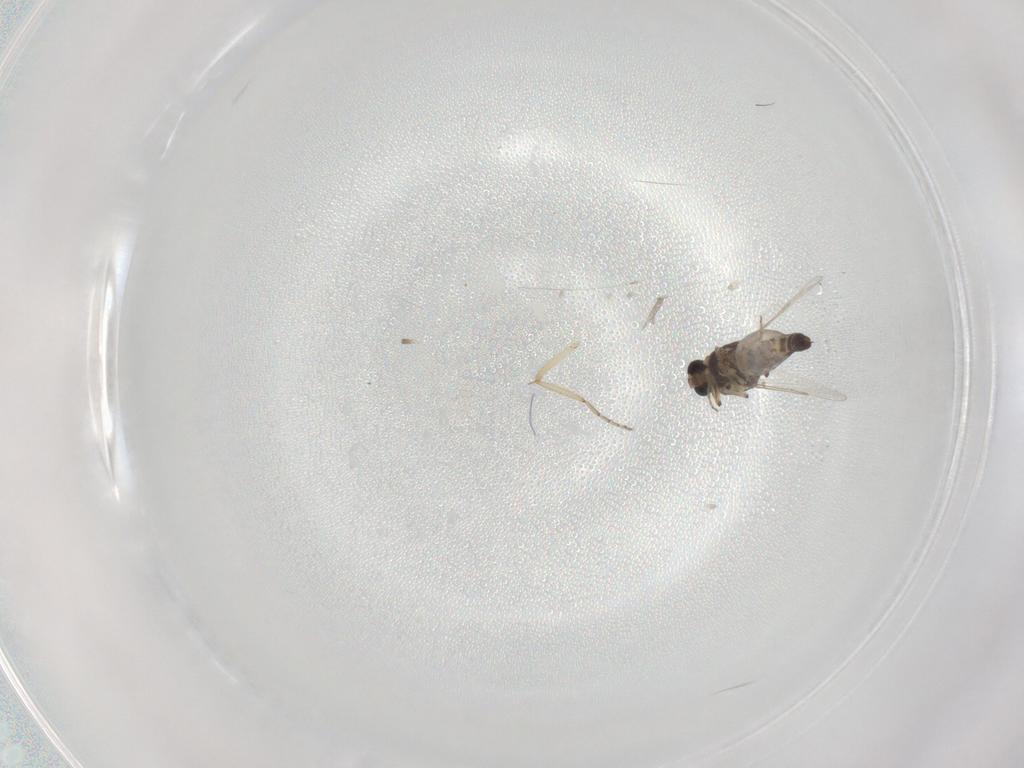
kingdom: Animalia
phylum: Arthropoda
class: Insecta
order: Diptera
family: Ceratopogonidae
